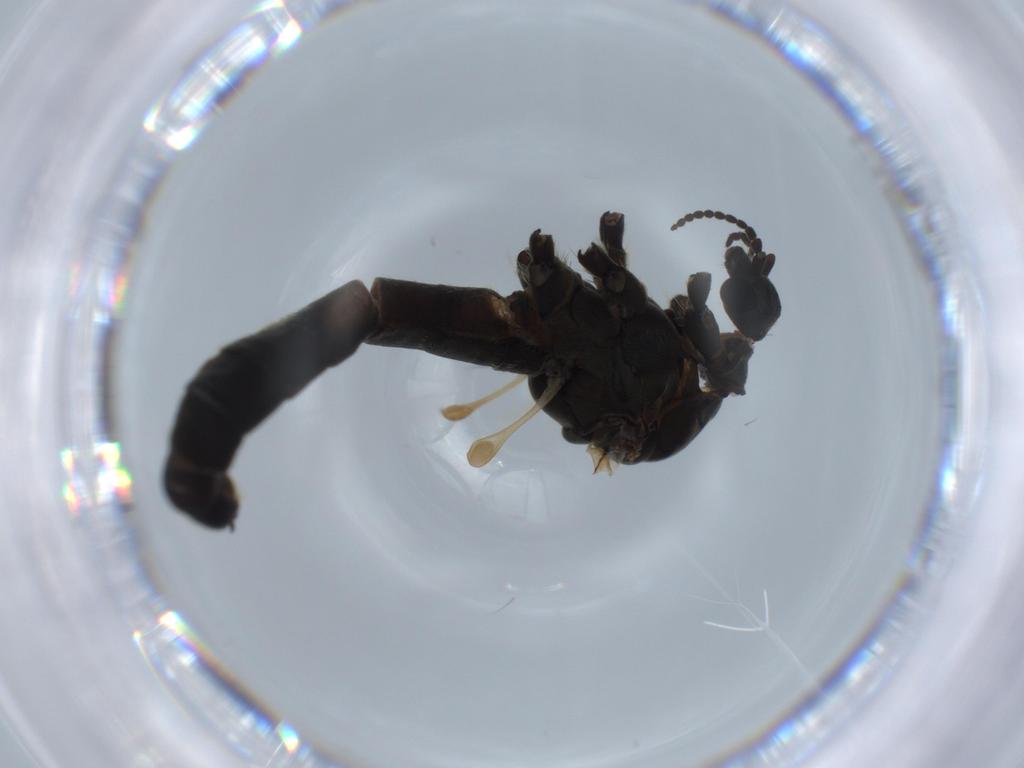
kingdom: Animalia
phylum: Arthropoda
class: Insecta
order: Diptera
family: Limoniidae
